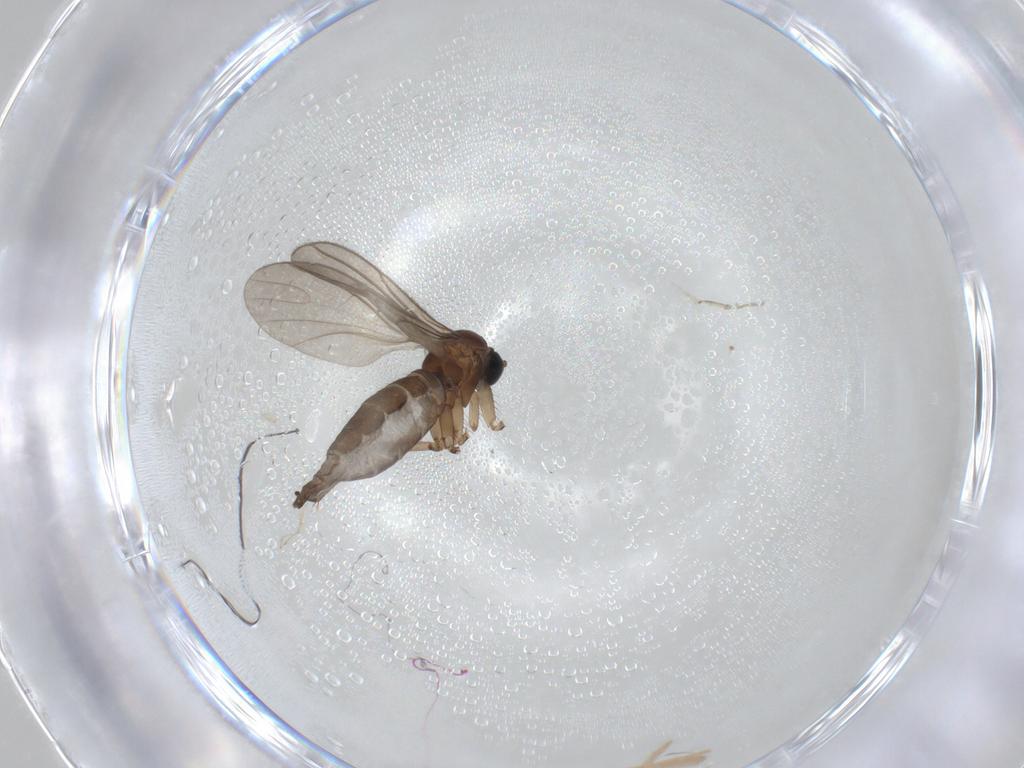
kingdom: Animalia
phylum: Arthropoda
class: Insecta
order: Diptera
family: Sciaridae
